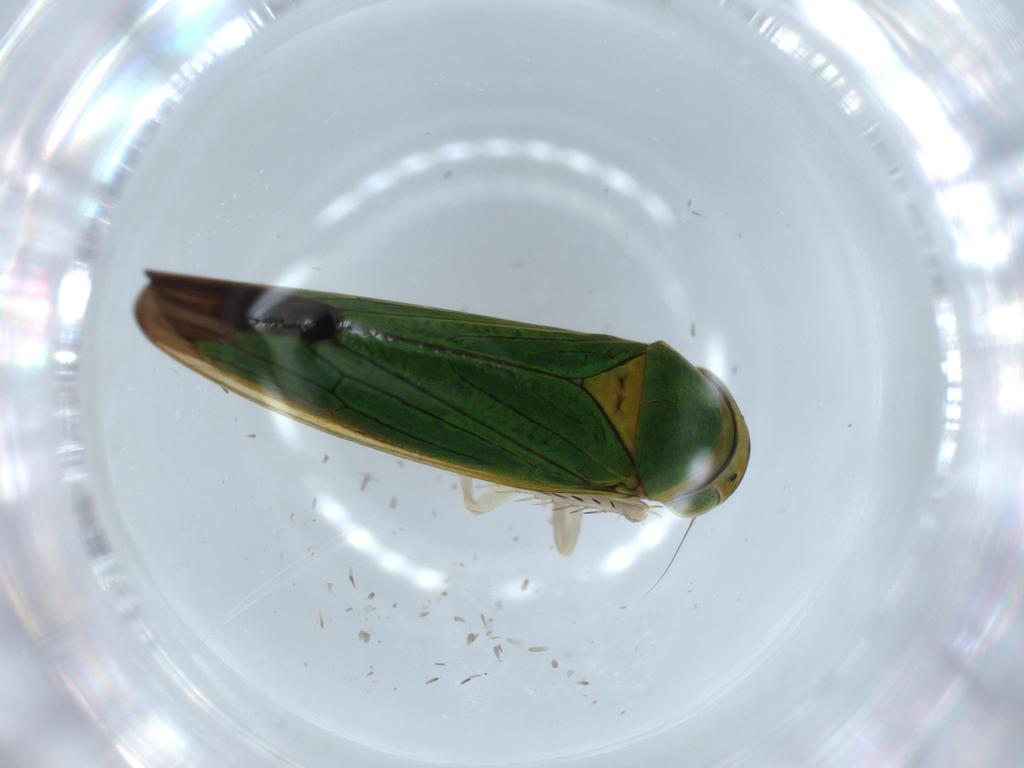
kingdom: Animalia
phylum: Arthropoda
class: Insecta
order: Hemiptera
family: Cicadellidae
